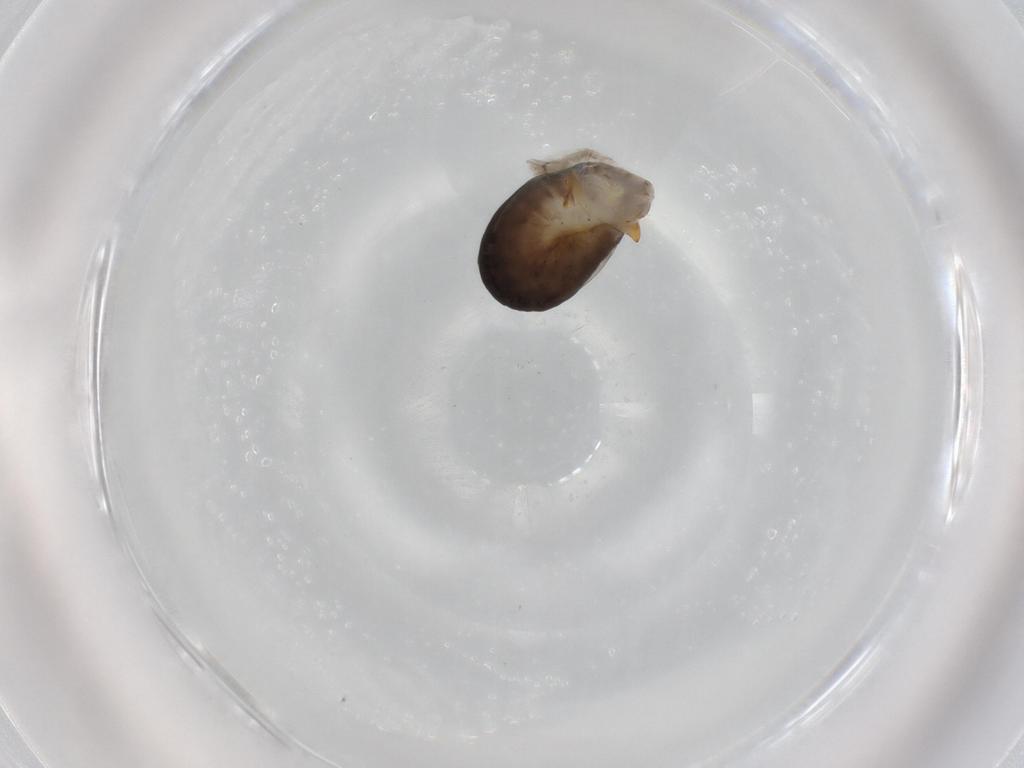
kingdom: Animalia
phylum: Arthropoda
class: Insecta
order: Hymenoptera
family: Dryinidae
